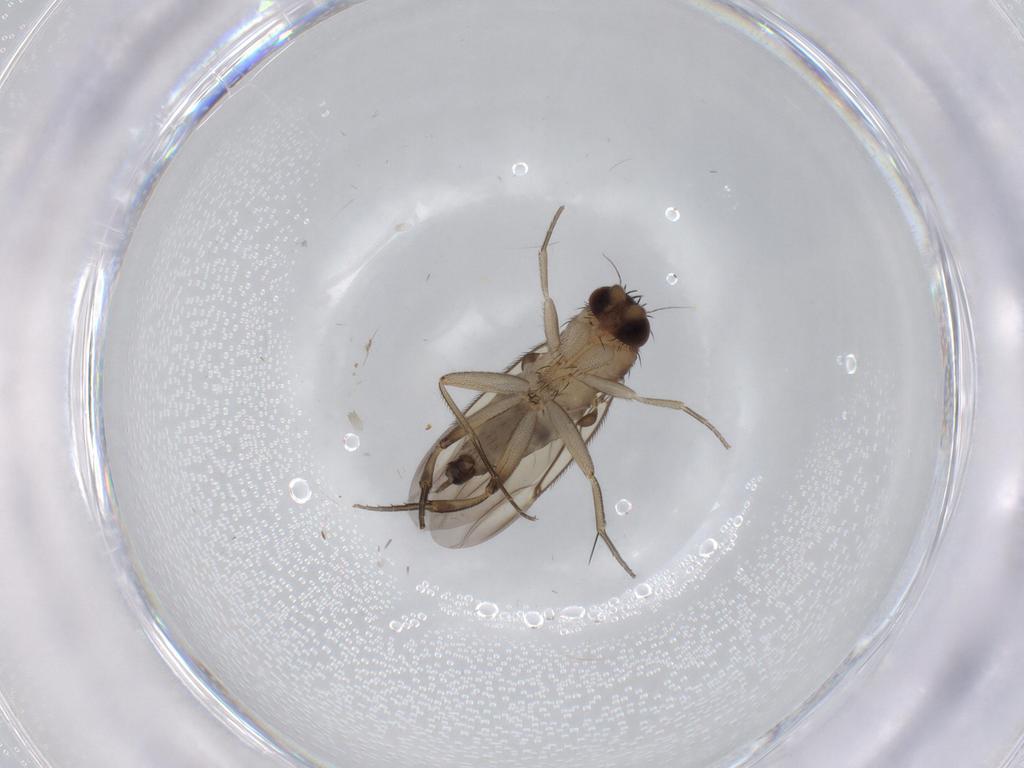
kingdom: Animalia
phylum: Arthropoda
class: Insecta
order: Diptera
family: Phoridae
